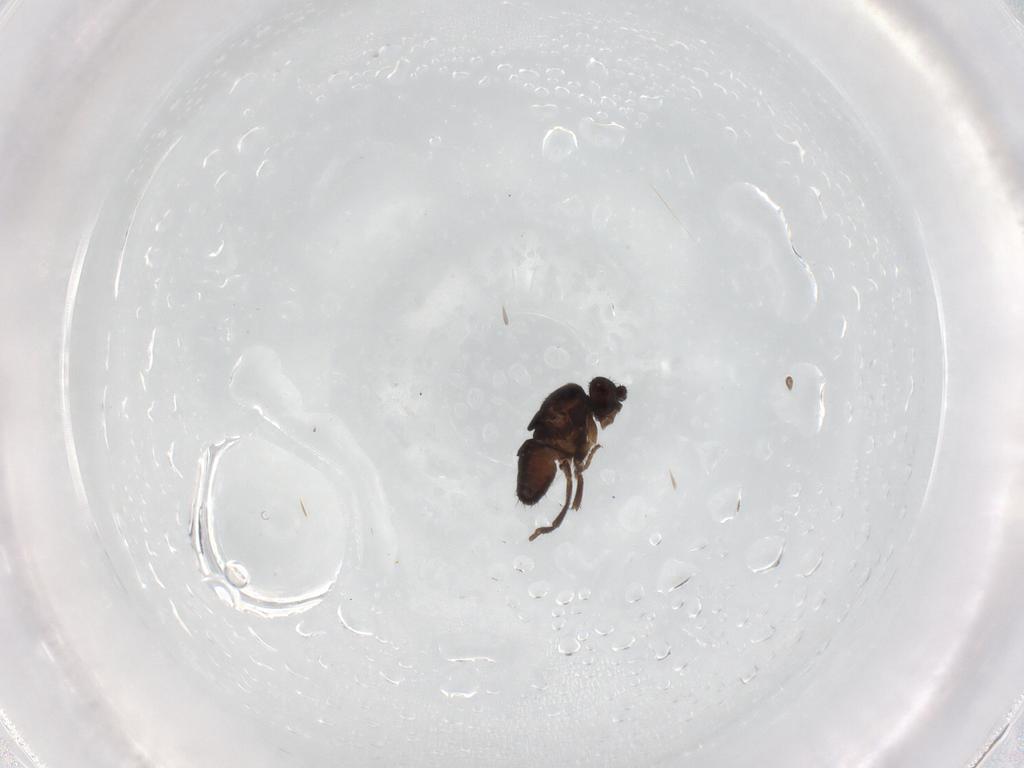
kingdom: Animalia
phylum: Arthropoda
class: Insecta
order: Diptera
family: Sphaeroceridae
